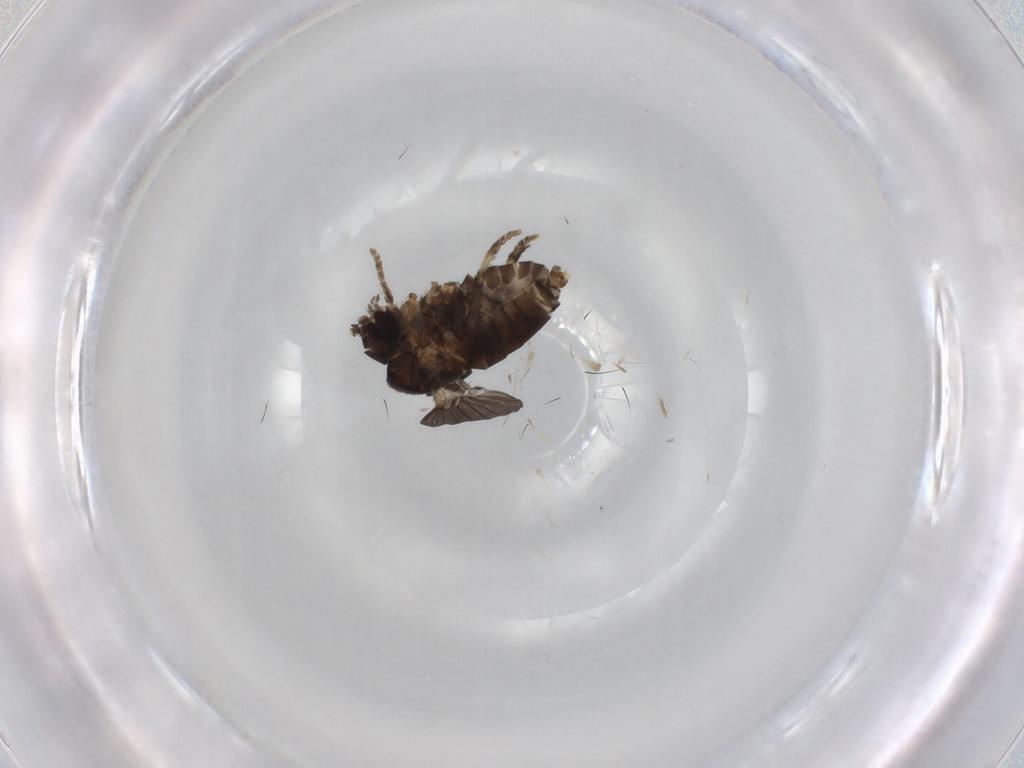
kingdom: Animalia
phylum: Arthropoda
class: Insecta
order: Diptera
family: Psychodidae
